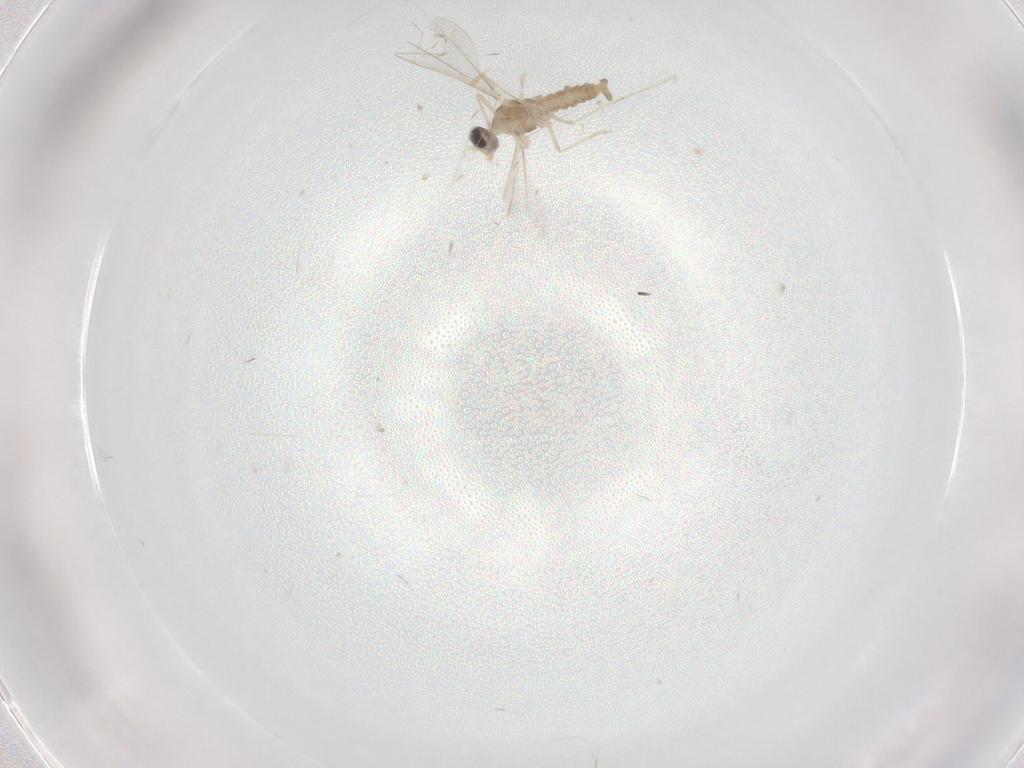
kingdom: Animalia
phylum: Arthropoda
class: Insecta
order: Diptera
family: Cecidomyiidae
